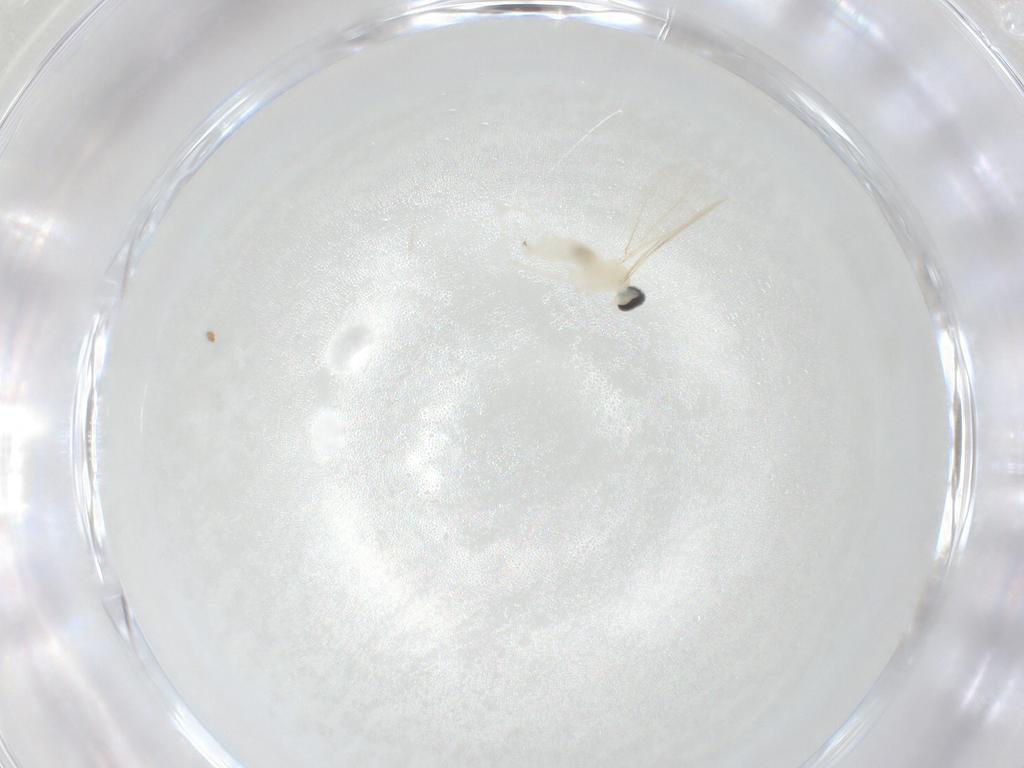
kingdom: Animalia
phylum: Arthropoda
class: Insecta
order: Diptera
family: Cecidomyiidae
